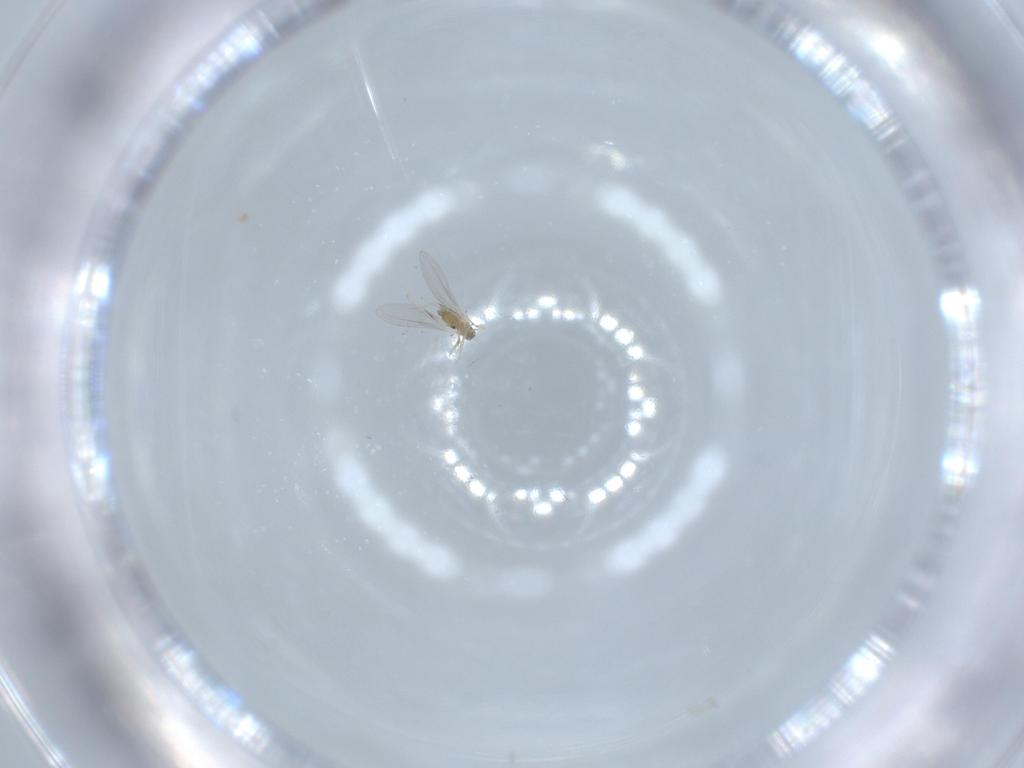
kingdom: Animalia
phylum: Arthropoda
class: Insecta
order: Diptera
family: Cecidomyiidae
